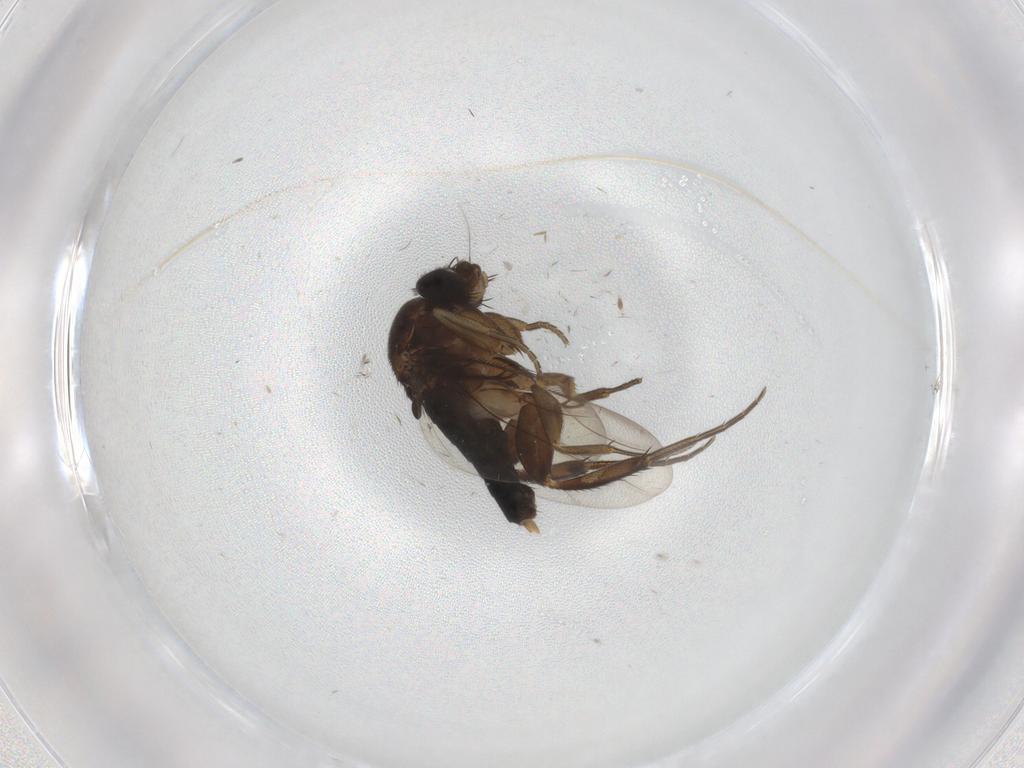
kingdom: Animalia
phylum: Arthropoda
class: Insecta
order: Diptera
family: Phoridae
